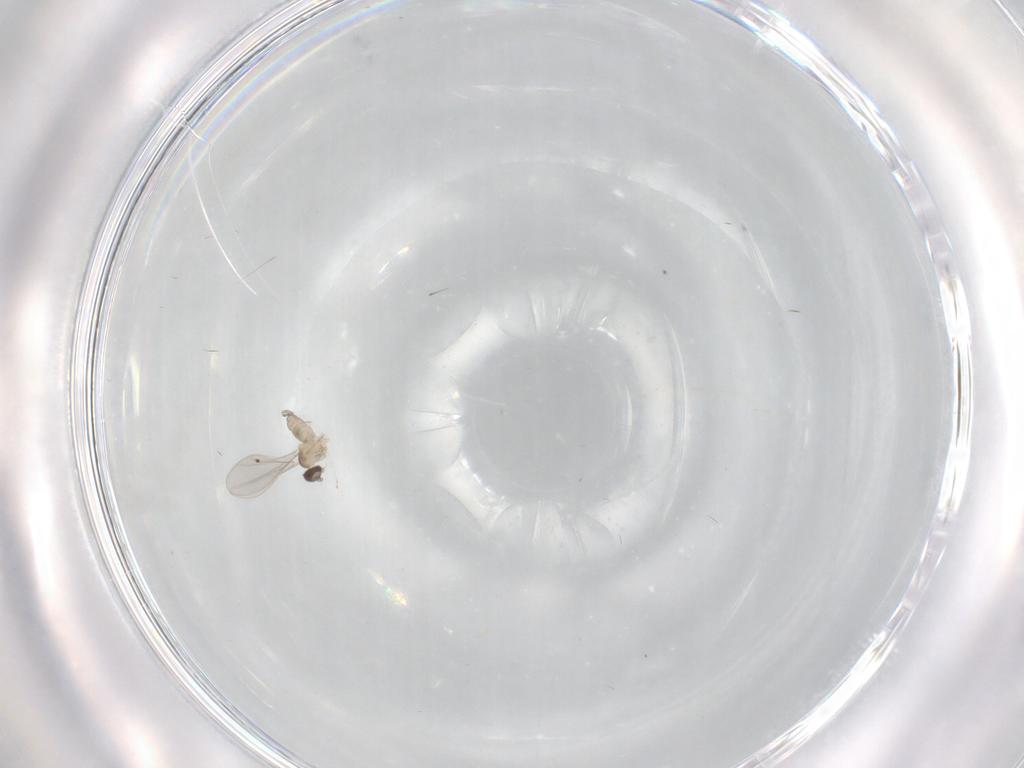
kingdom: Animalia
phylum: Arthropoda
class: Insecta
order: Diptera
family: Cecidomyiidae
